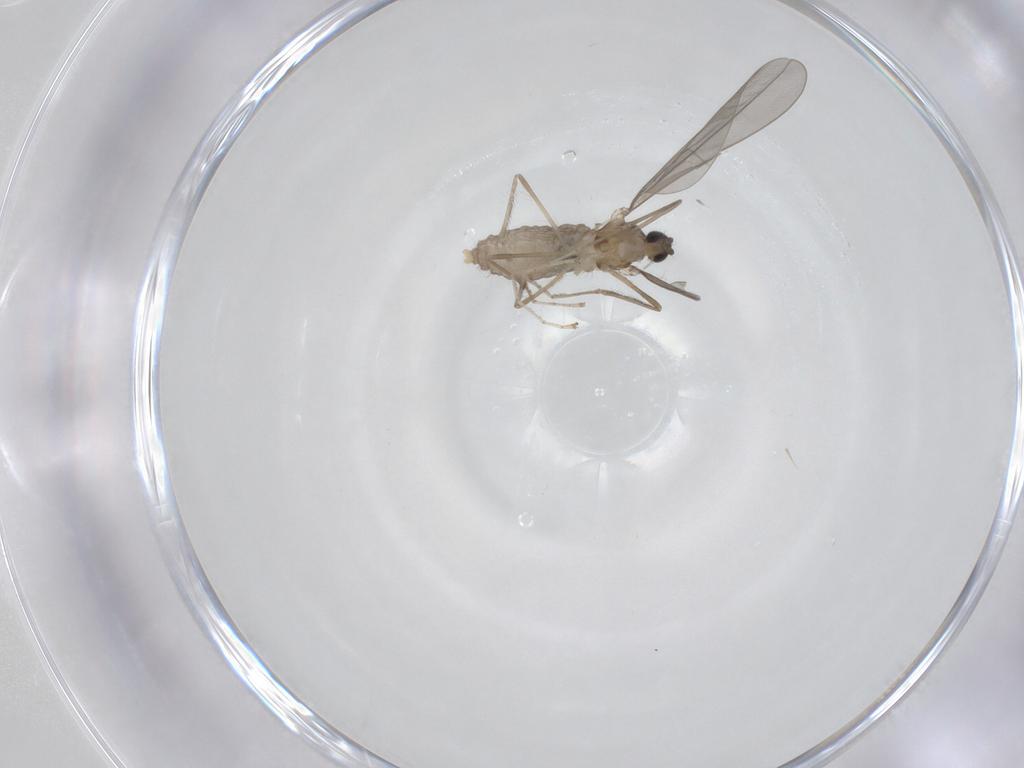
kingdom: Animalia
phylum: Arthropoda
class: Insecta
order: Diptera
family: Cecidomyiidae
